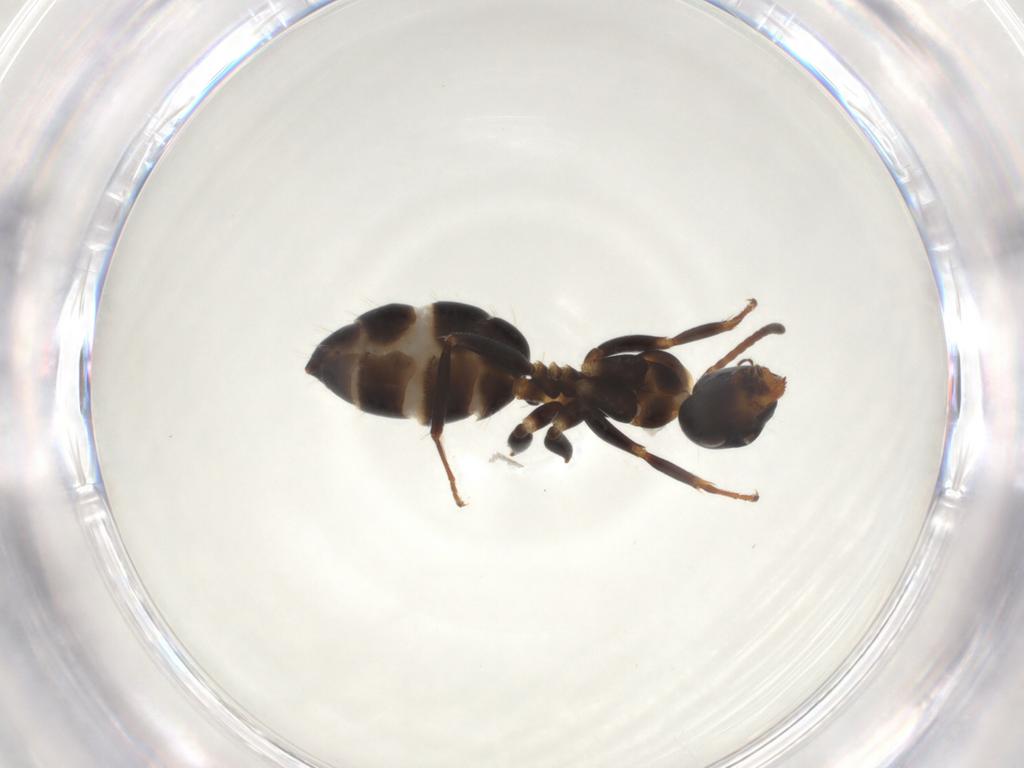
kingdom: Animalia
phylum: Arthropoda
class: Insecta
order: Hymenoptera
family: Formicidae
